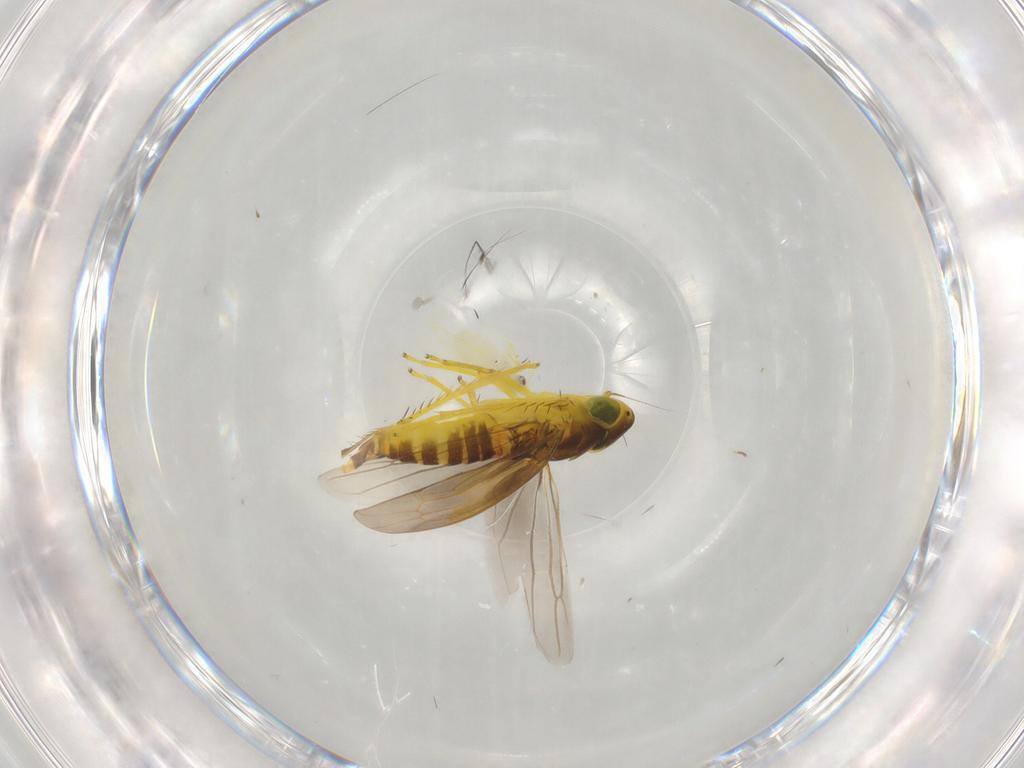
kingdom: Animalia
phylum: Arthropoda
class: Insecta
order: Hemiptera
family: Cicadellidae
